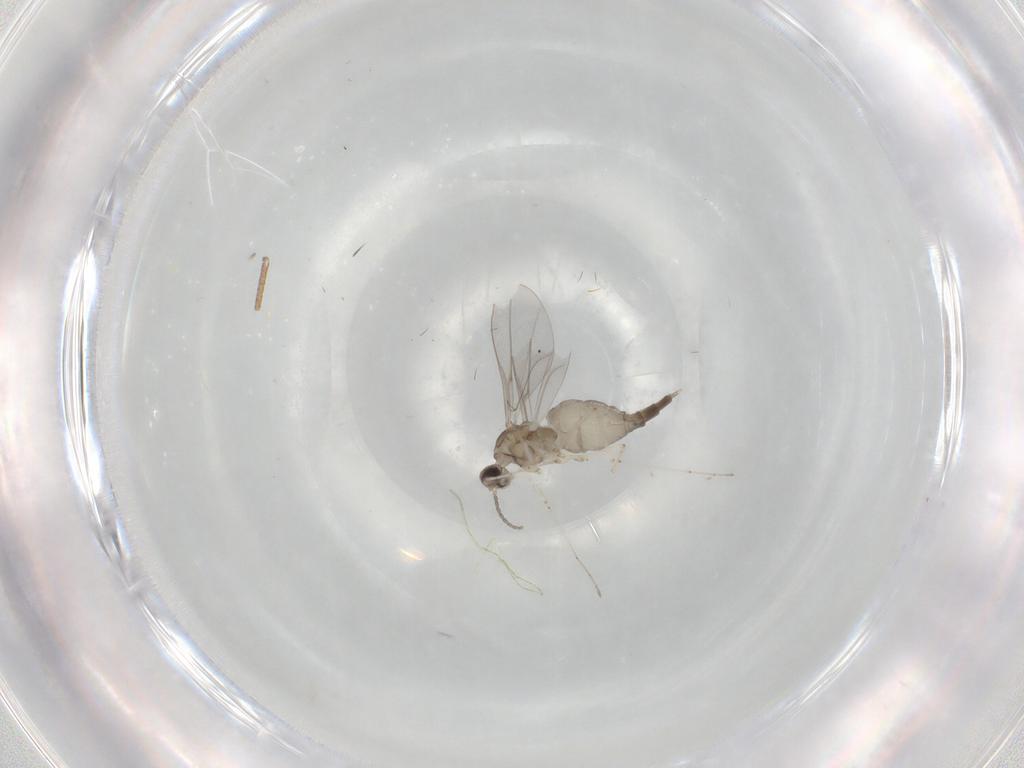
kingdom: Animalia
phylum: Arthropoda
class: Insecta
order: Diptera
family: Cecidomyiidae
